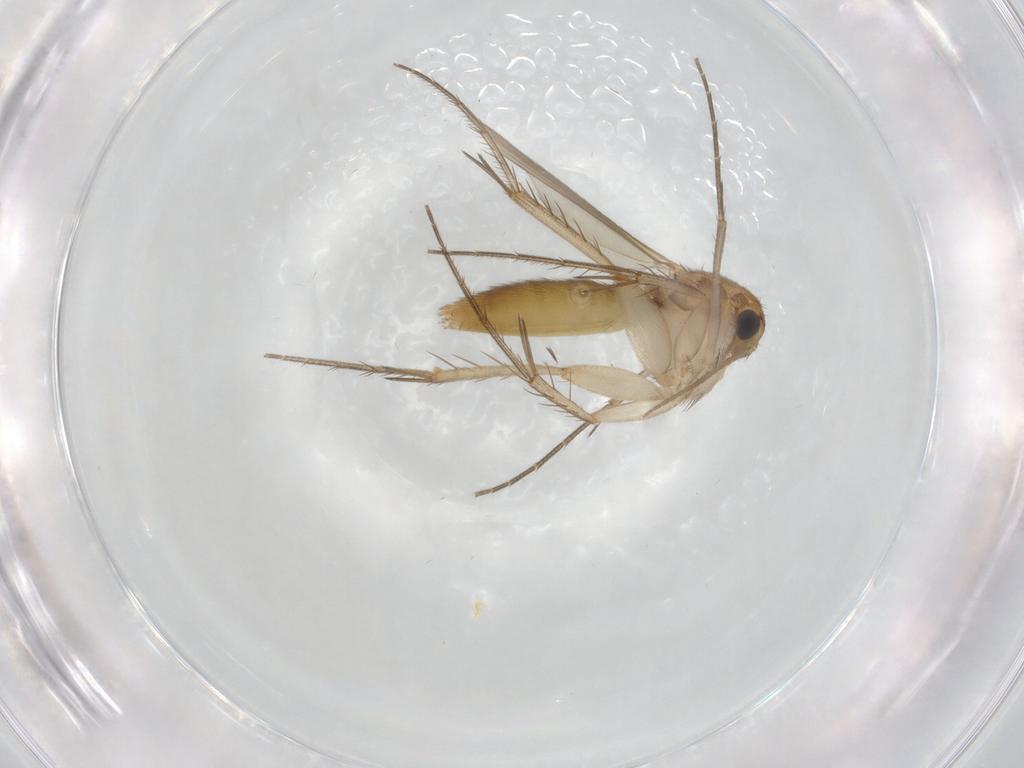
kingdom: Animalia
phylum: Arthropoda
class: Insecta
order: Diptera
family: Mycetophilidae
